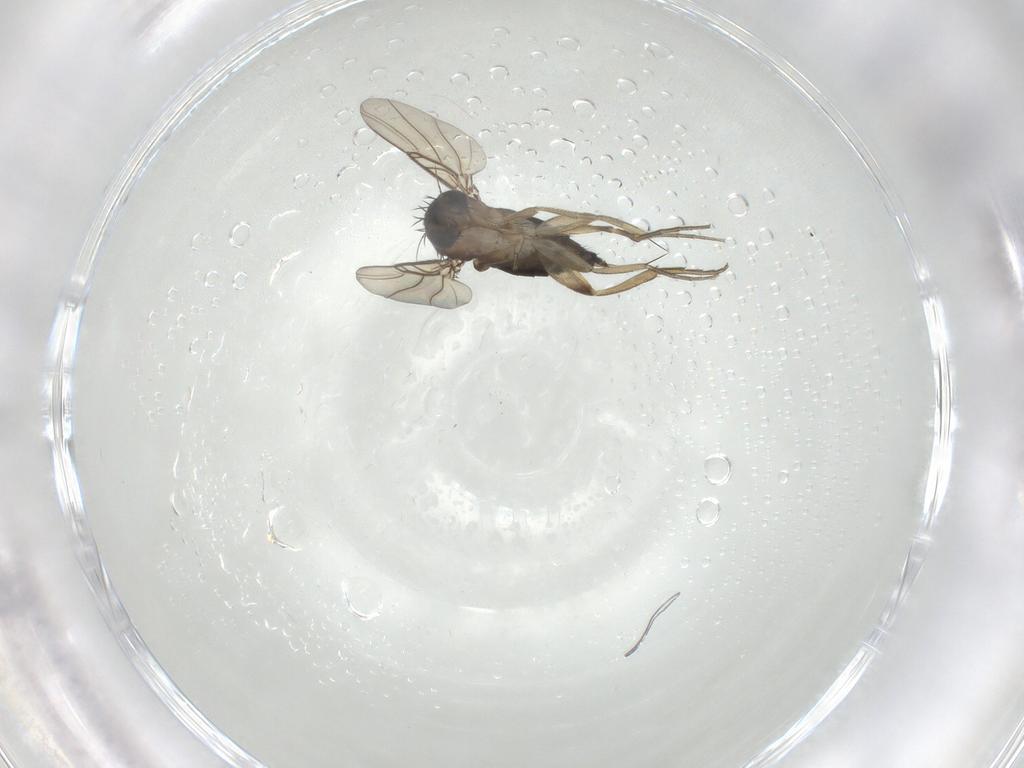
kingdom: Animalia
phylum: Arthropoda
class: Insecta
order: Diptera
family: Phoridae
